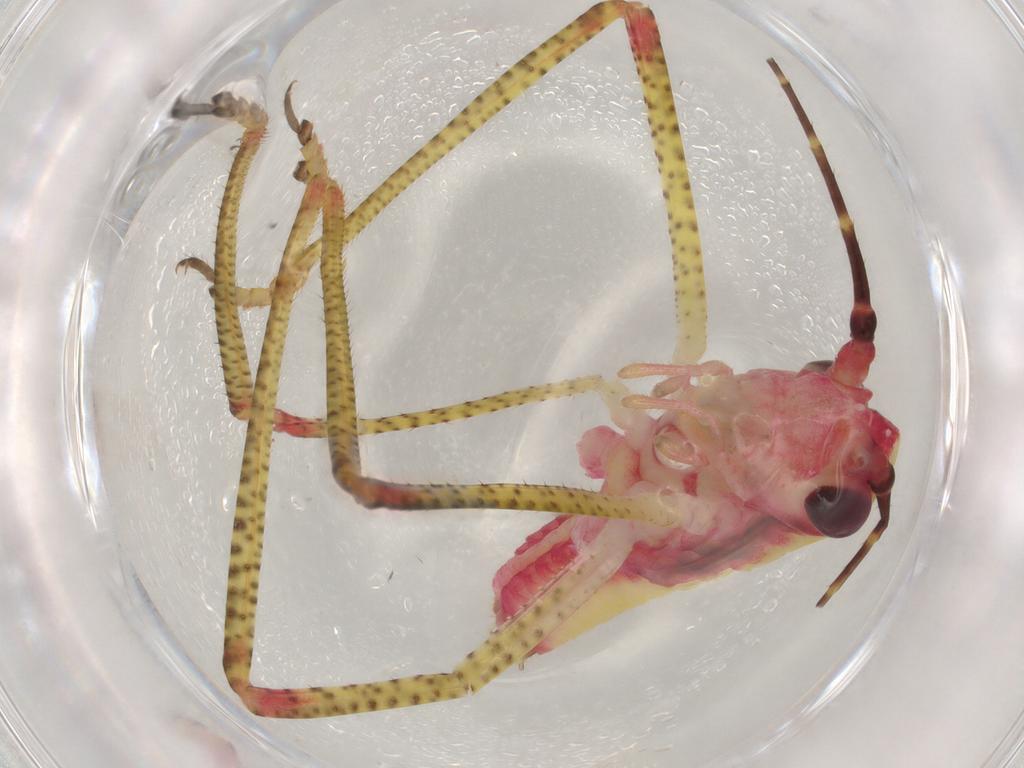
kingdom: Animalia
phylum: Arthropoda
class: Insecta
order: Orthoptera
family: Tettigoniidae
